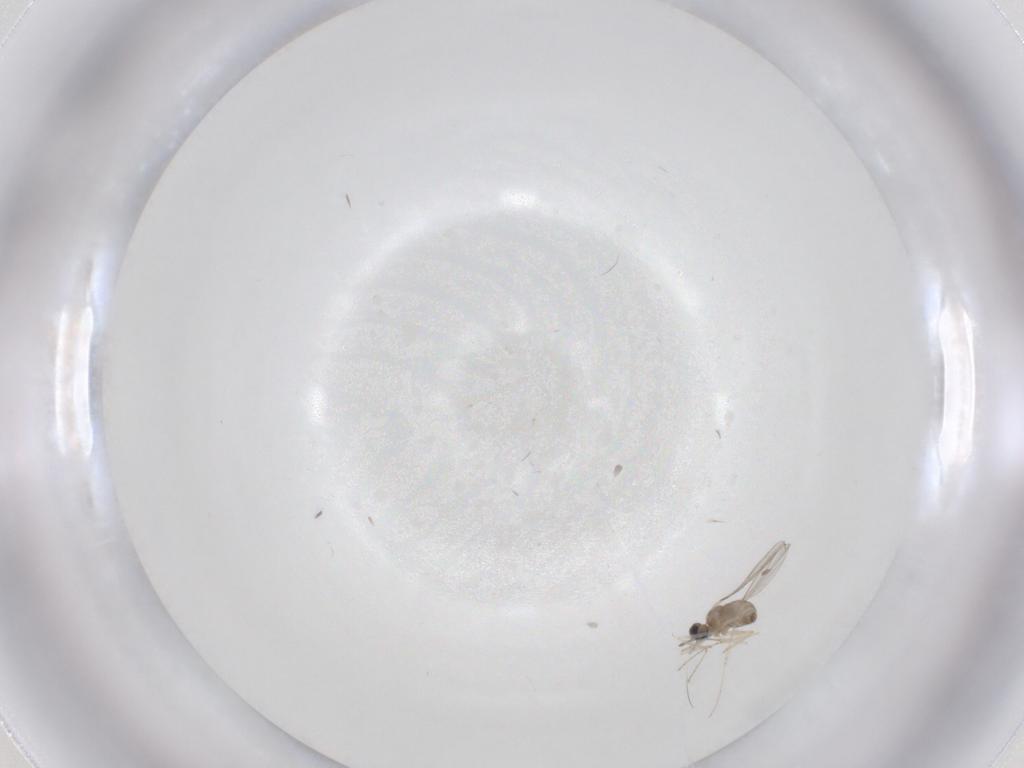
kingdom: Animalia
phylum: Arthropoda
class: Insecta
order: Diptera
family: Cecidomyiidae
